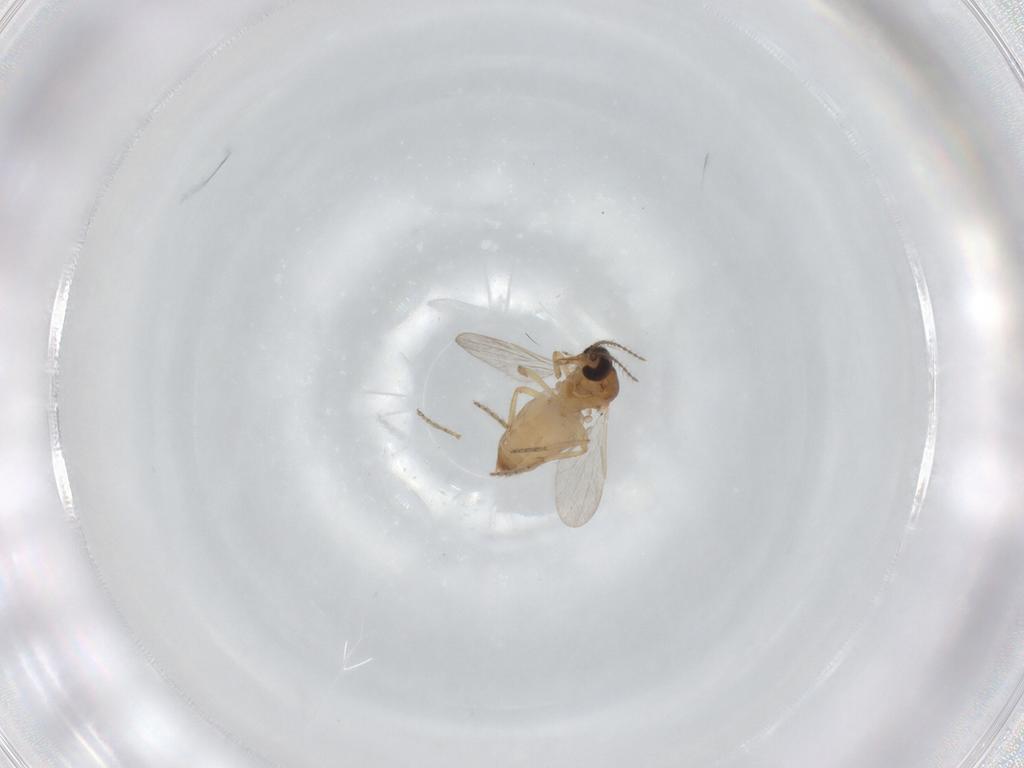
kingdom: Animalia
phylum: Arthropoda
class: Insecta
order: Diptera
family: Ceratopogonidae
